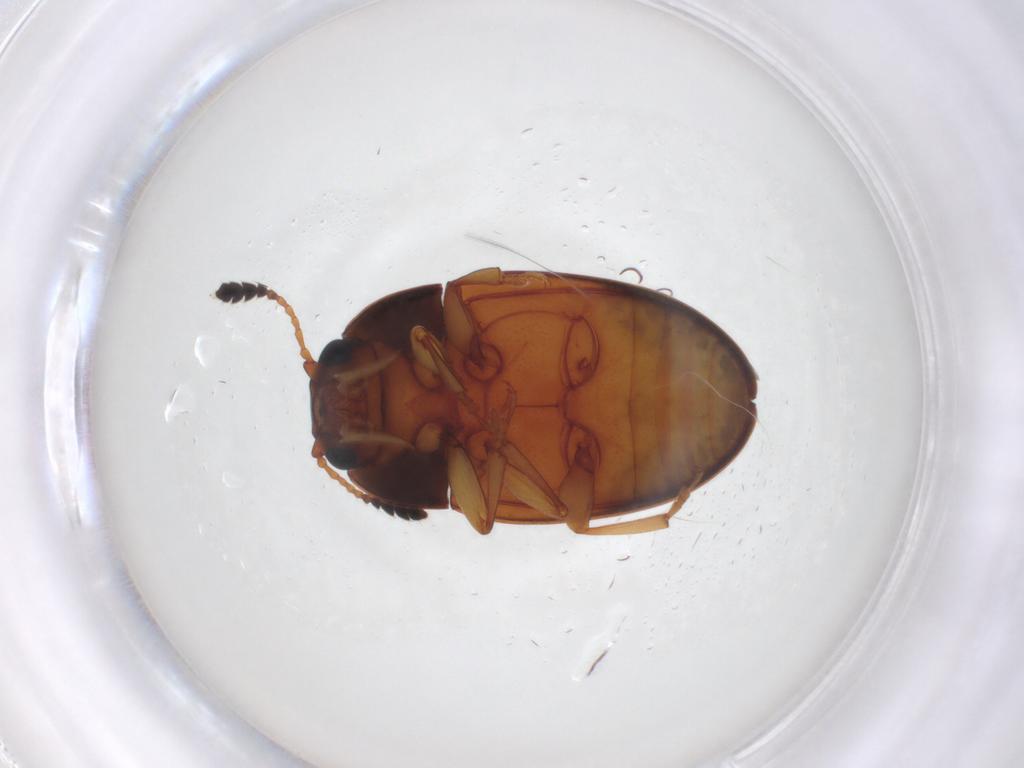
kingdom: Animalia
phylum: Arthropoda
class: Insecta
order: Coleoptera
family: Erotylidae
